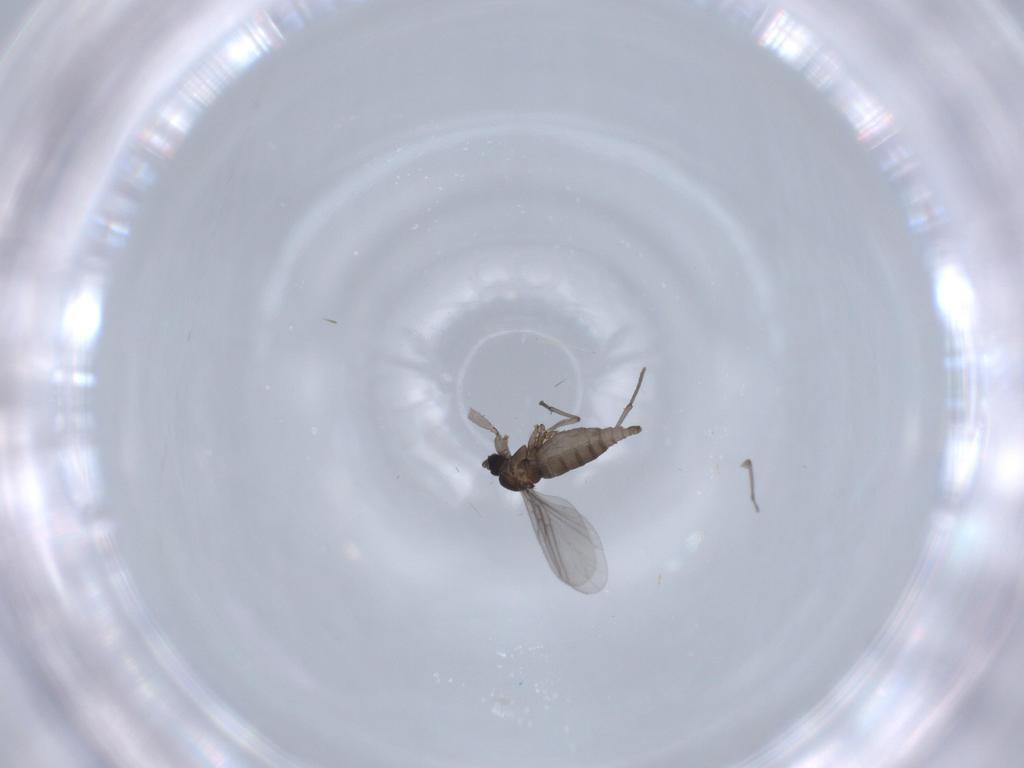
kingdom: Animalia
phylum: Arthropoda
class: Insecta
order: Diptera
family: Sciaridae
